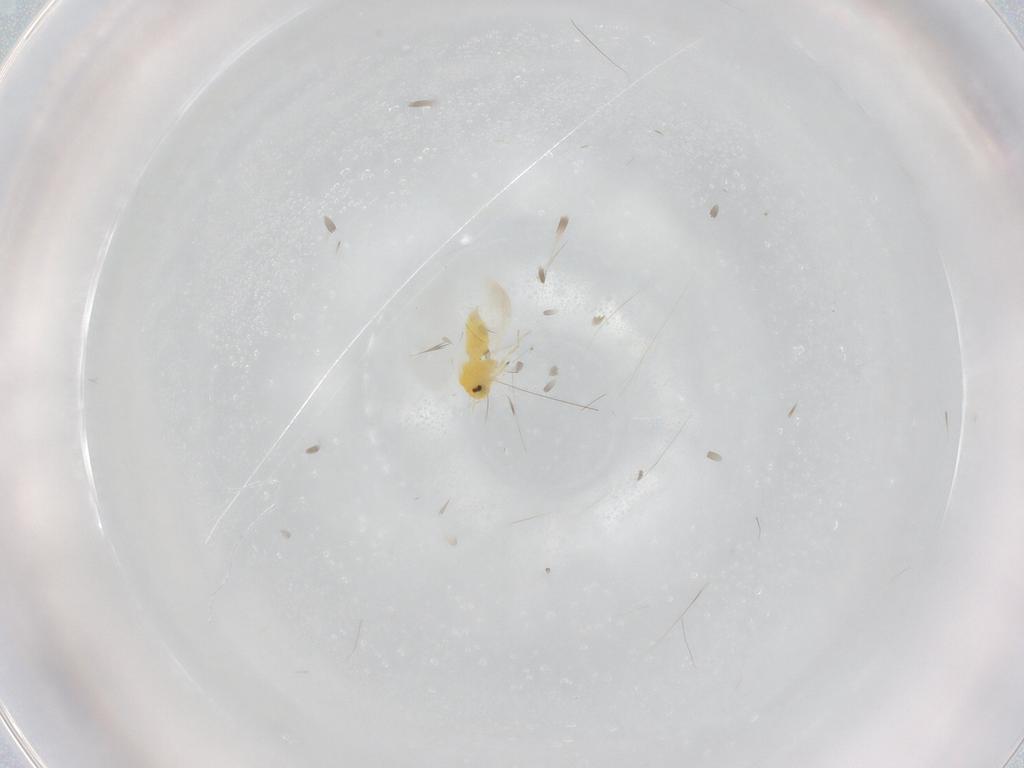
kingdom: Animalia
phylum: Arthropoda
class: Insecta
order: Hemiptera
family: Aleyrodidae
